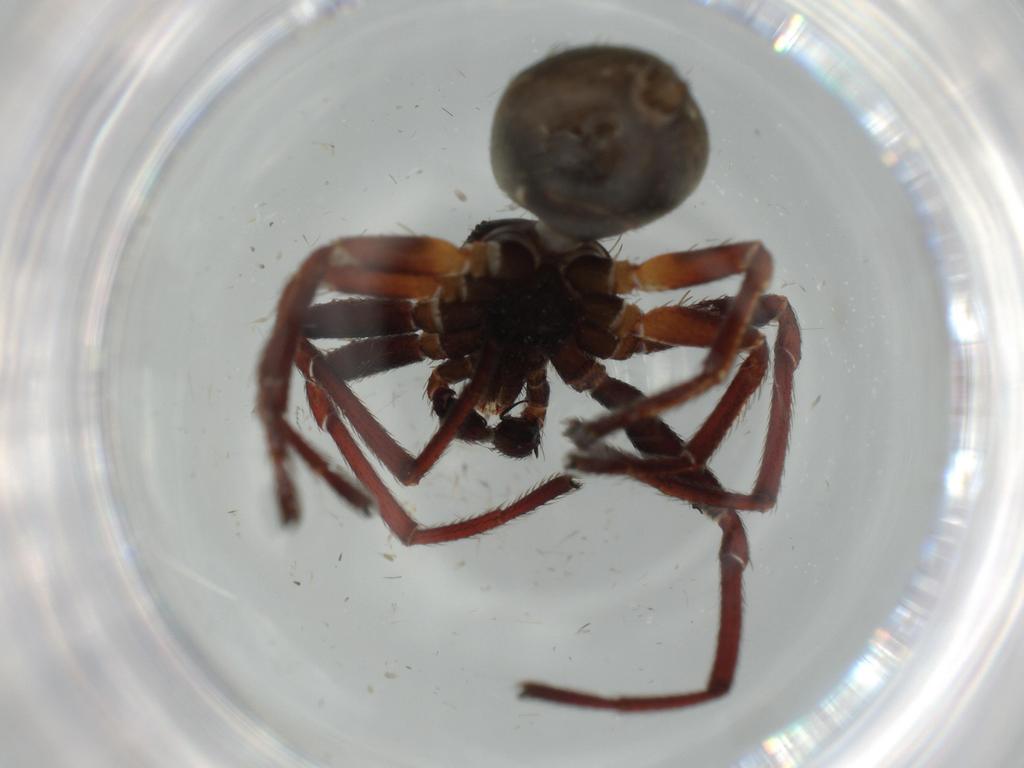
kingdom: Animalia
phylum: Arthropoda
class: Arachnida
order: Araneae
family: Thomisidae
